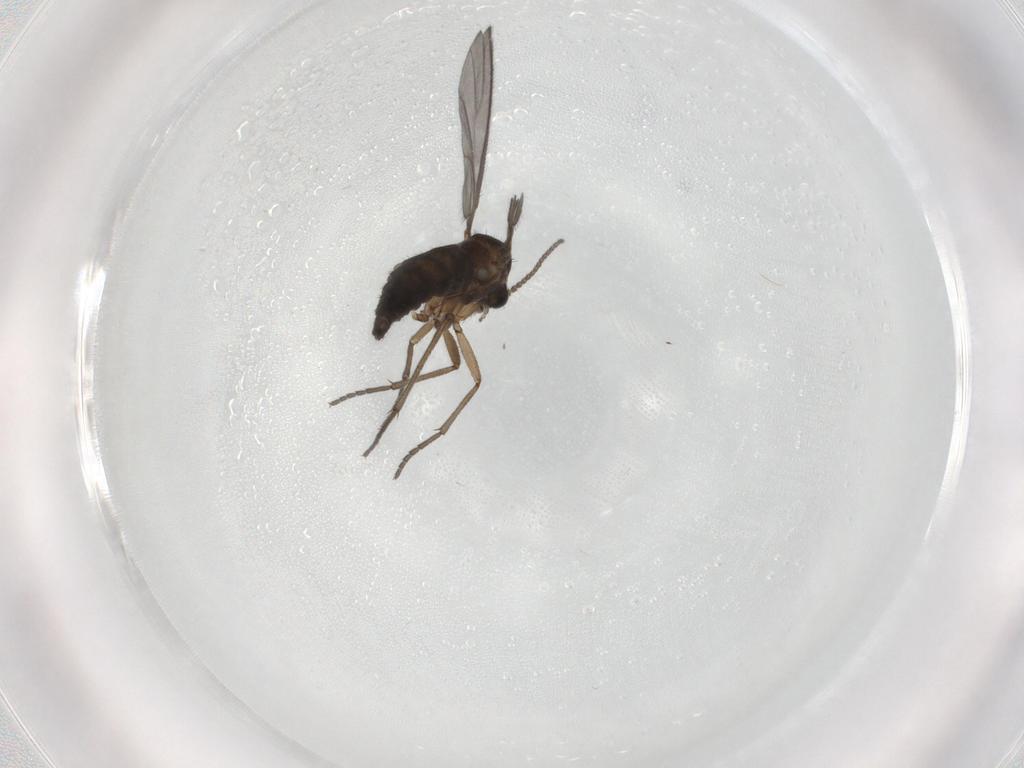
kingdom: Animalia
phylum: Arthropoda
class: Insecta
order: Diptera
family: Sciaridae
